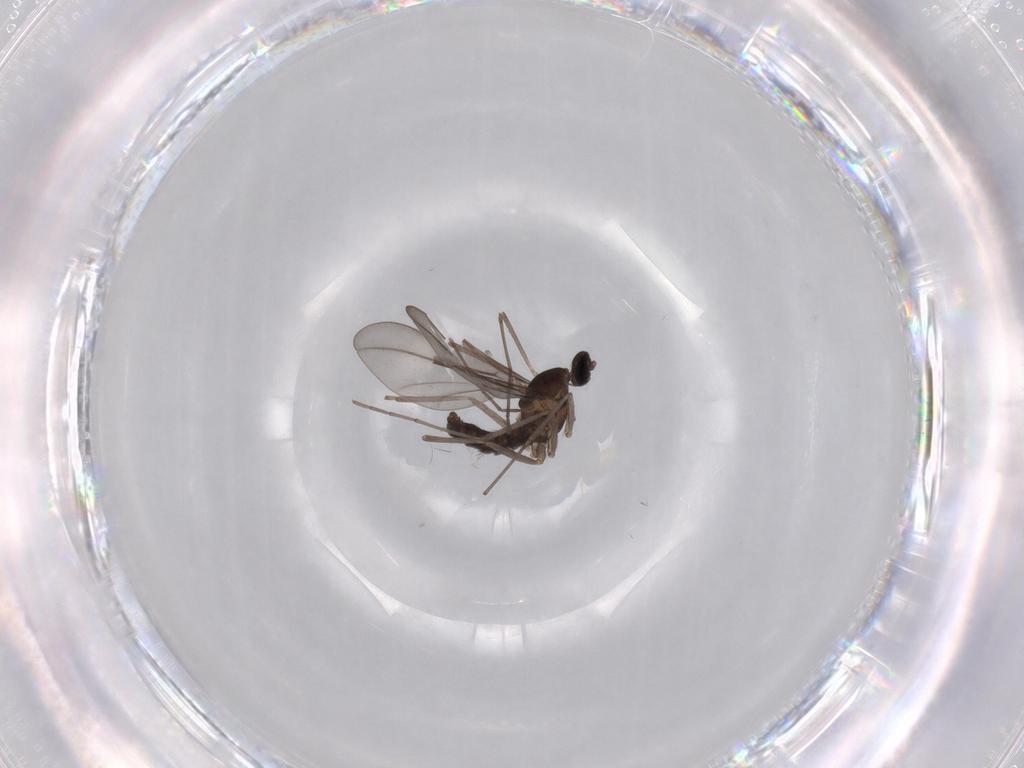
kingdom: Animalia
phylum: Arthropoda
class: Insecta
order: Diptera
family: Cecidomyiidae
